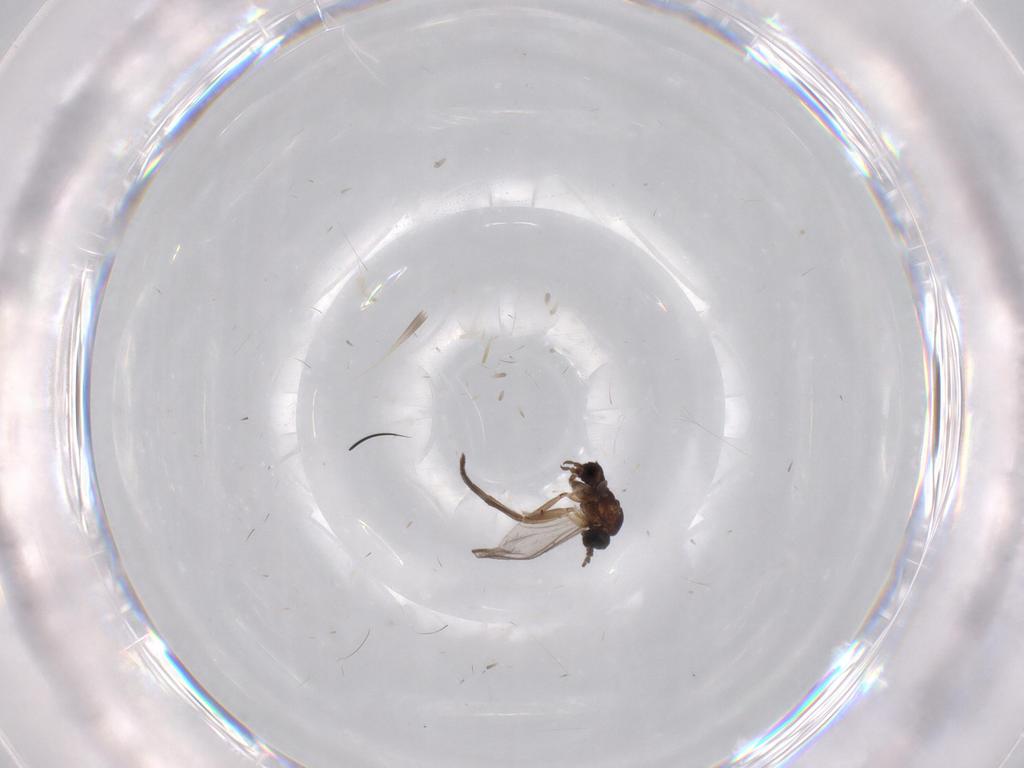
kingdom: Animalia
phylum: Arthropoda
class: Insecta
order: Diptera
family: Sciaridae
